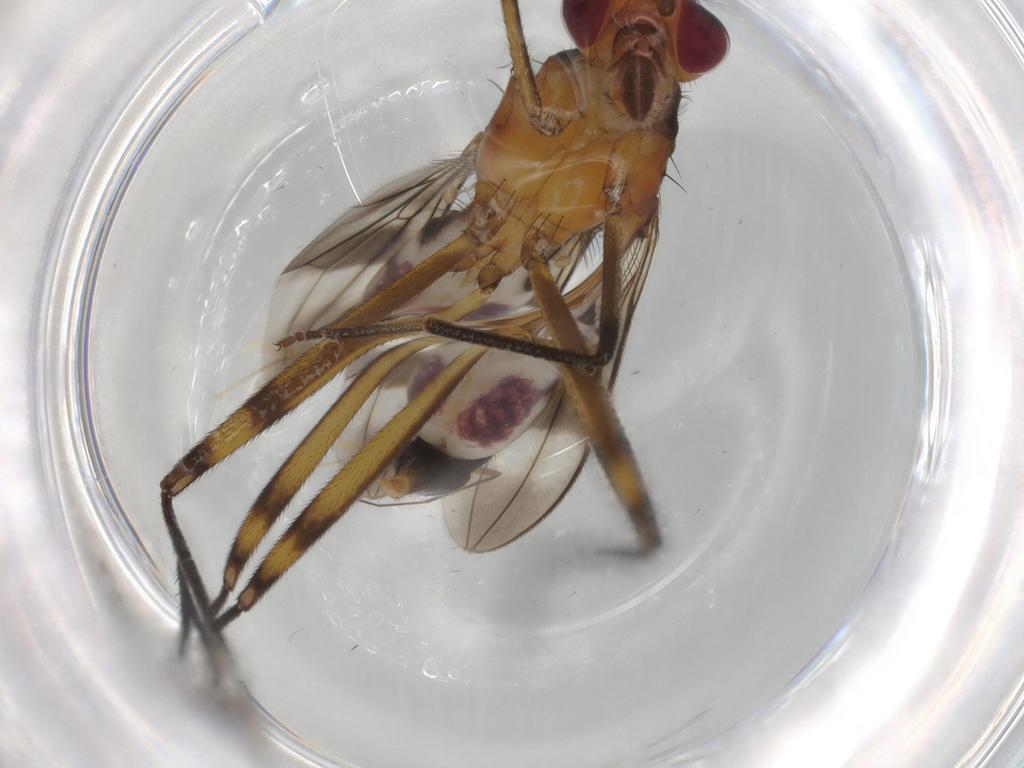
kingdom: Animalia
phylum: Arthropoda
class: Insecta
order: Diptera
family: Micropezidae
